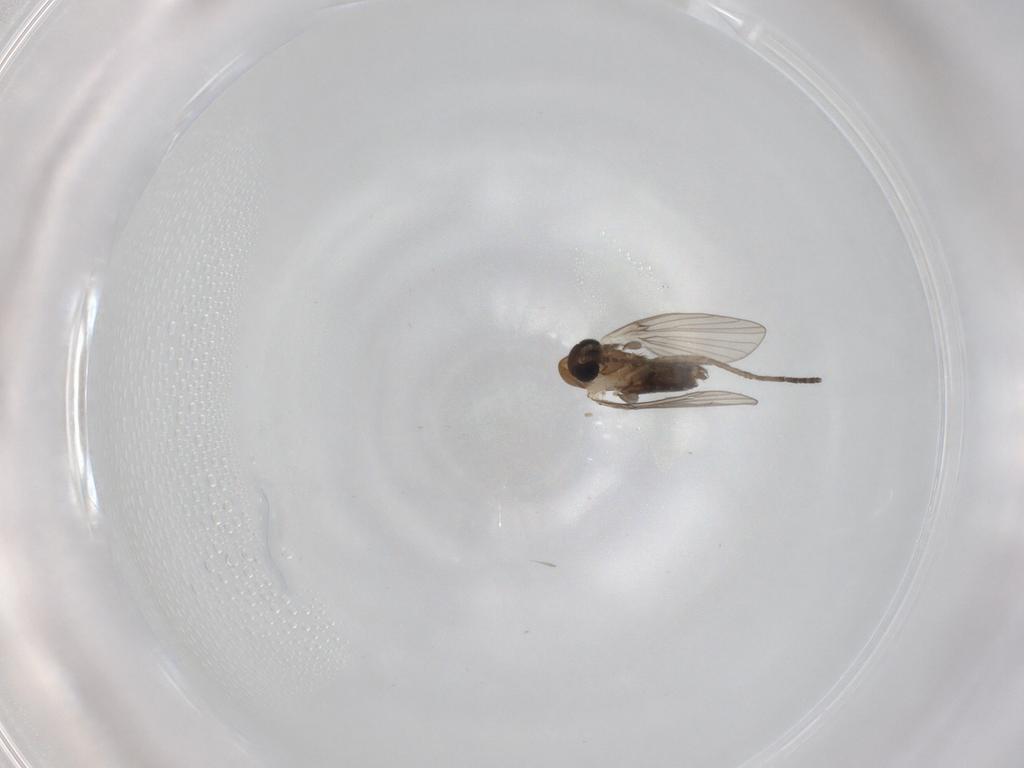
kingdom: Animalia
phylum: Arthropoda
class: Insecta
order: Diptera
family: Psychodidae
